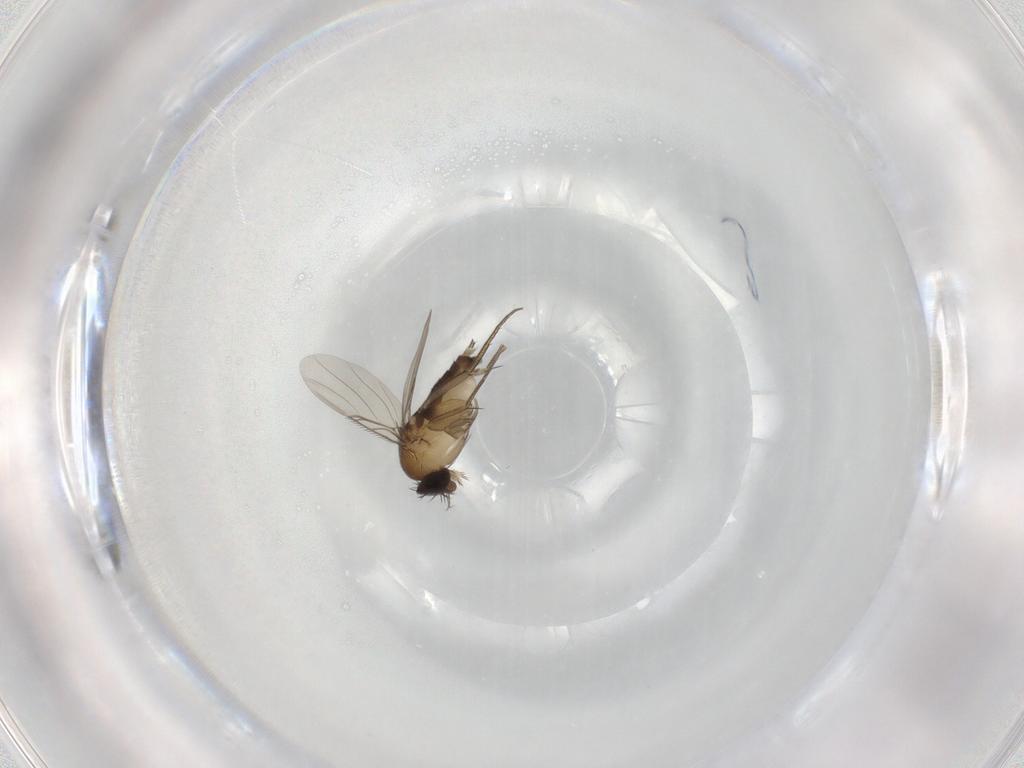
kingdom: Animalia
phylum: Arthropoda
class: Insecta
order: Diptera
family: Phoridae
